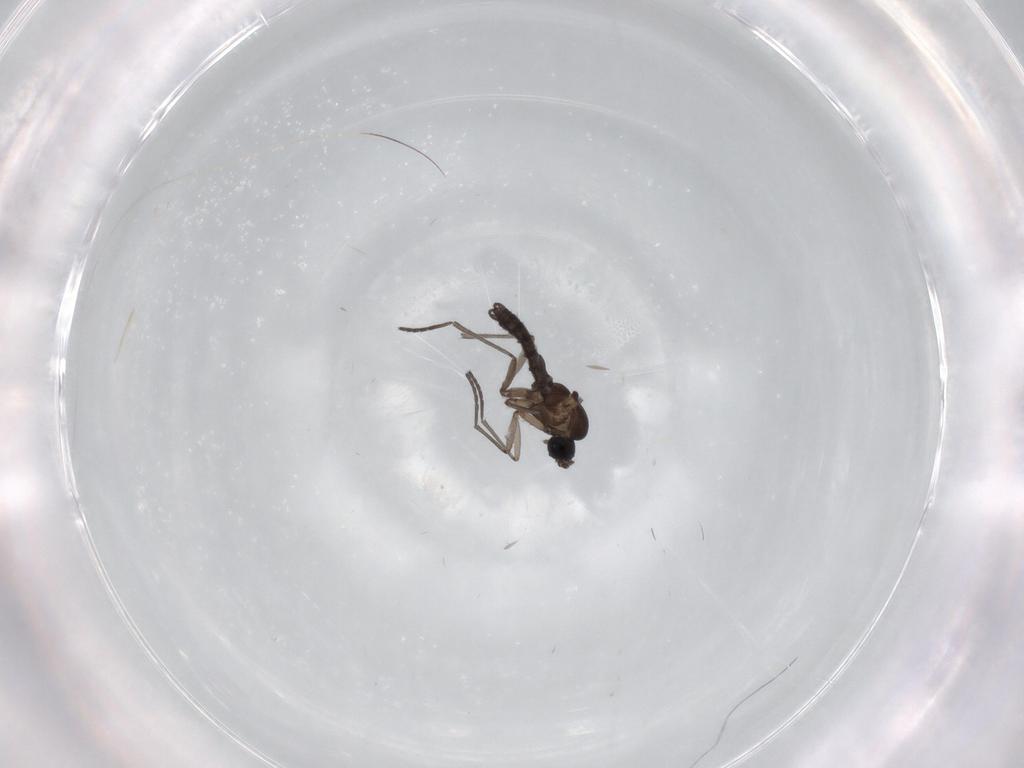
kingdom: Animalia
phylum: Arthropoda
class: Insecta
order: Diptera
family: Sciaridae
